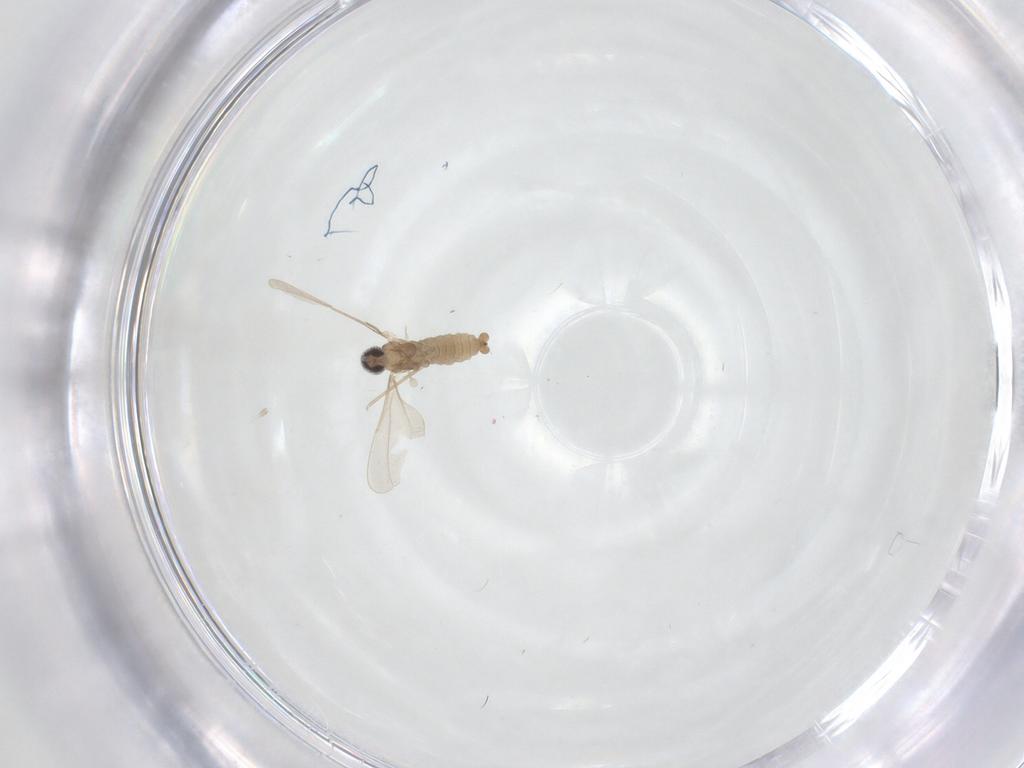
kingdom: Animalia
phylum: Arthropoda
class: Insecta
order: Diptera
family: Cecidomyiidae
